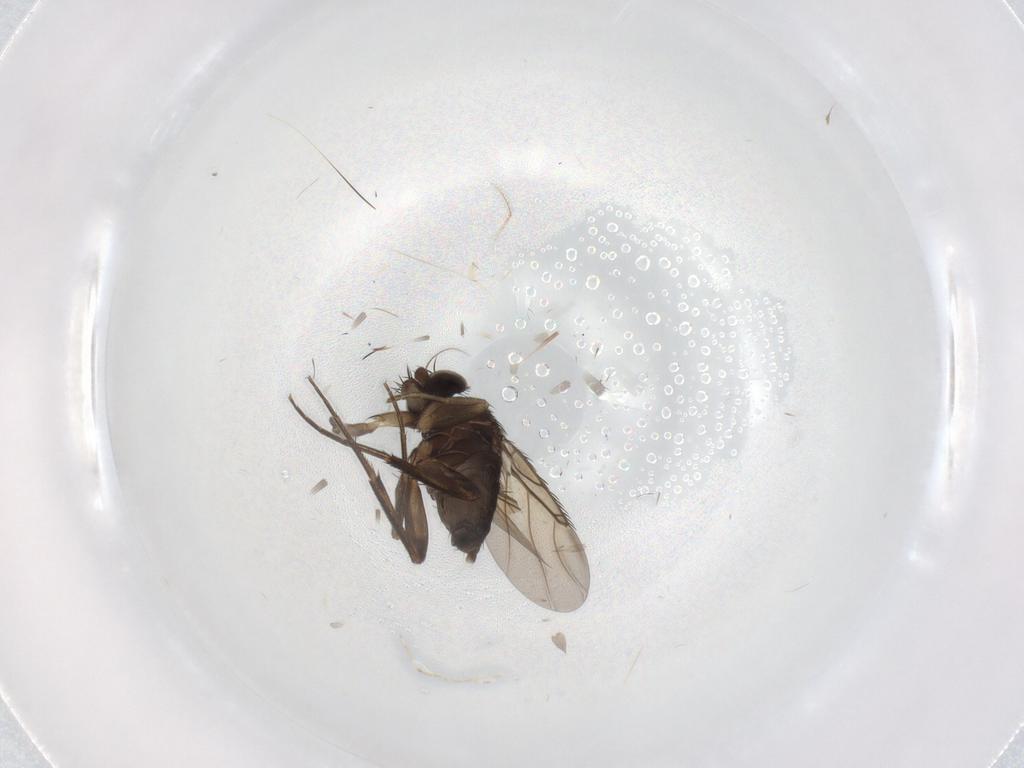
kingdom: Animalia
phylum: Arthropoda
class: Insecta
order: Diptera
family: Phoridae
